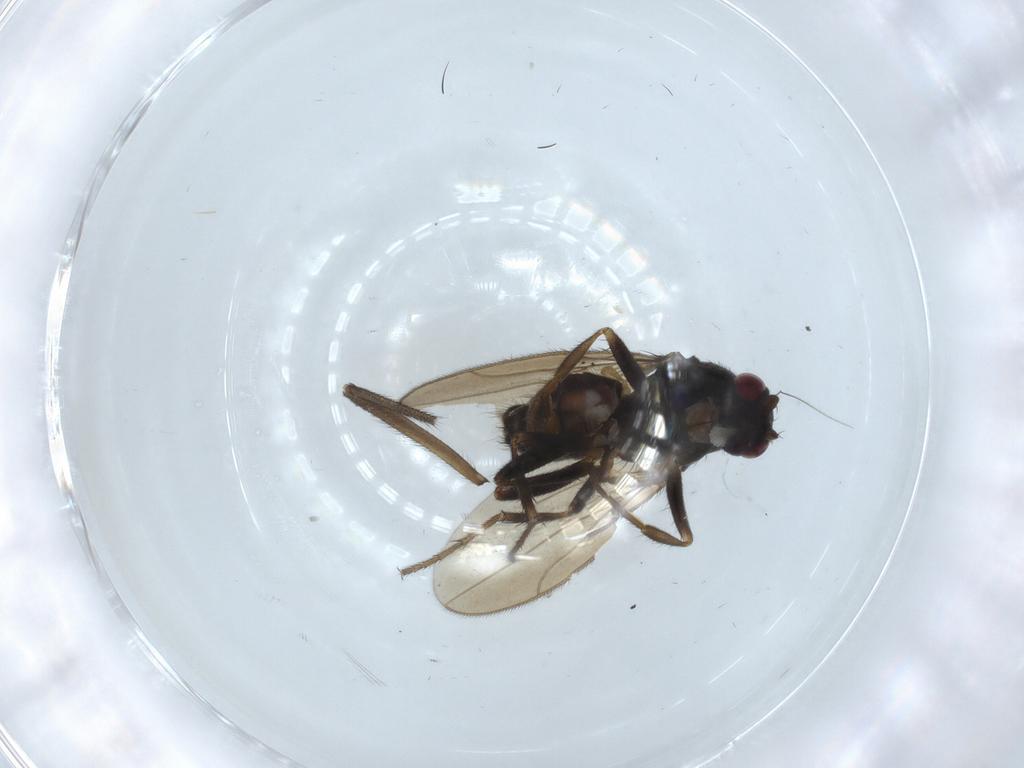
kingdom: Animalia
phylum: Arthropoda
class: Insecta
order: Diptera
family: Sphaeroceridae
